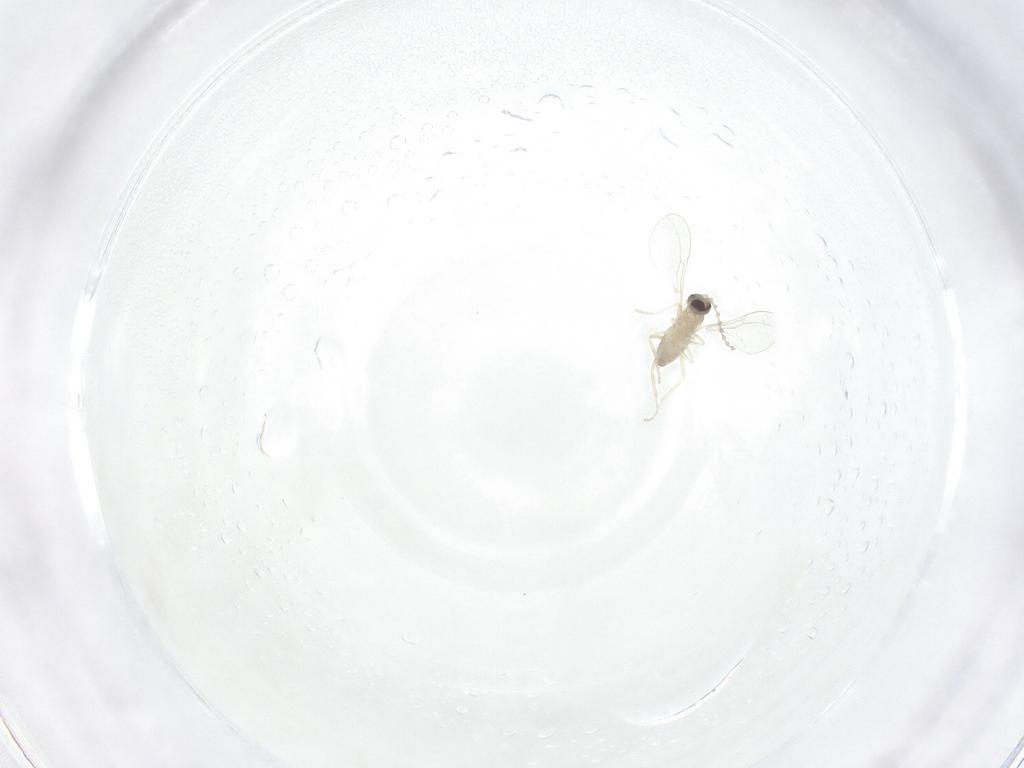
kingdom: Animalia
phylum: Arthropoda
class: Insecta
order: Diptera
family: Cecidomyiidae
